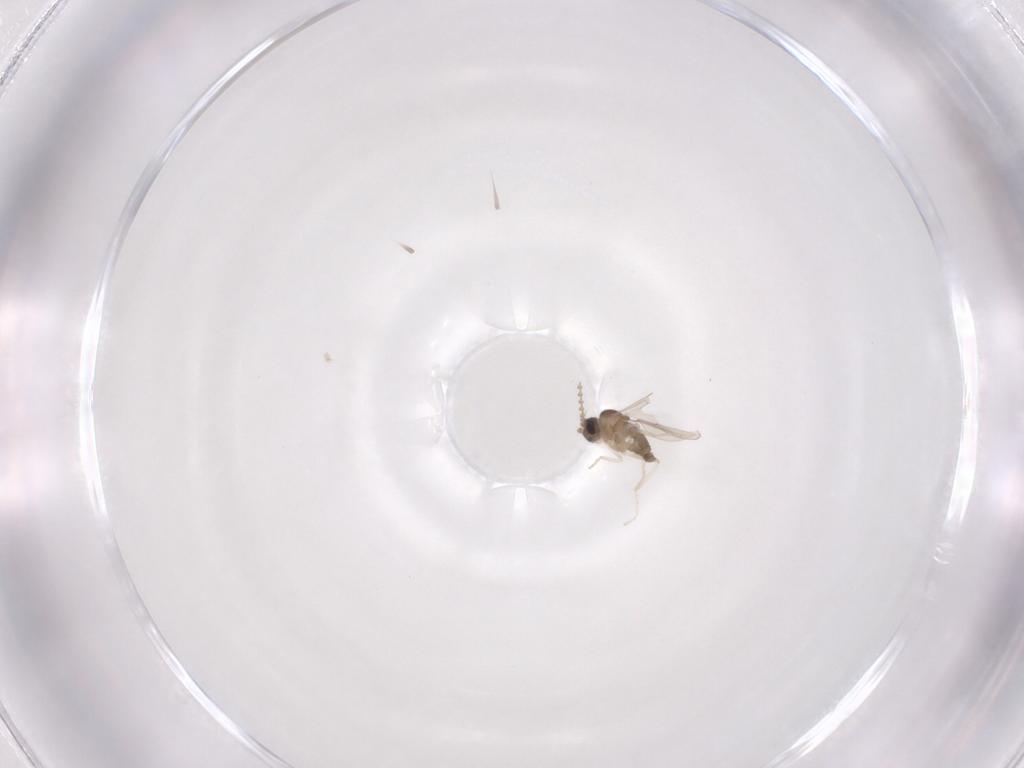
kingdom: Animalia
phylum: Arthropoda
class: Insecta
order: Diptera
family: Cecidomyiidae
